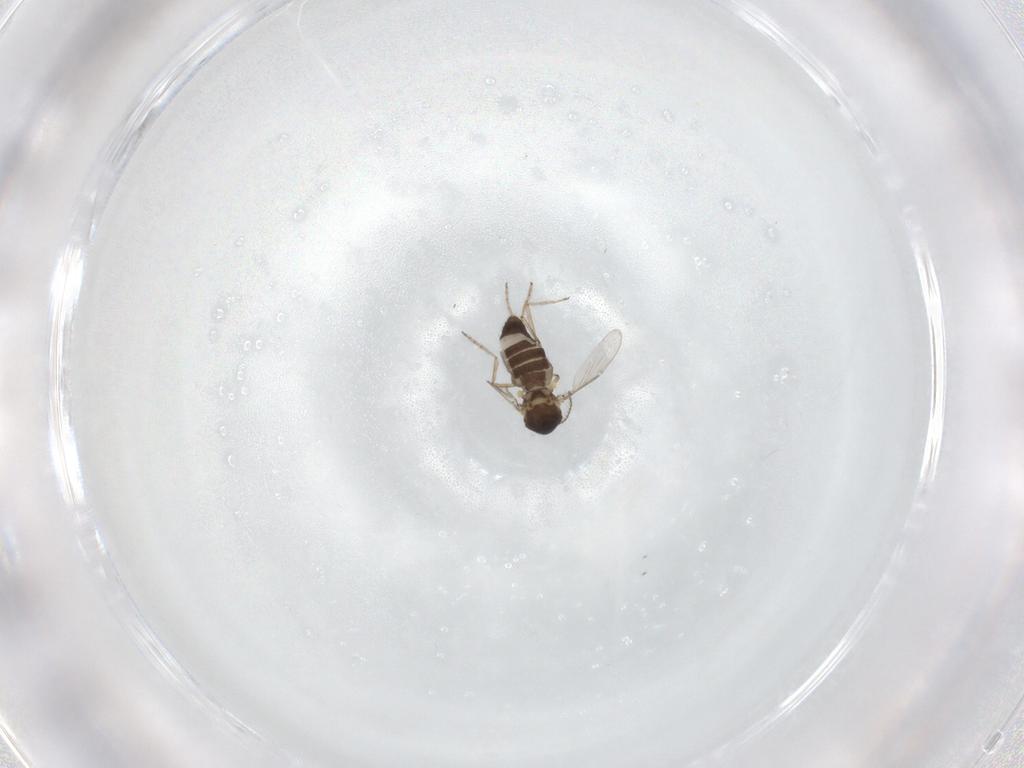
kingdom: Animalia
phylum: Arthropoda
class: Insecta
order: Diptera
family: Ceratopogonidae
